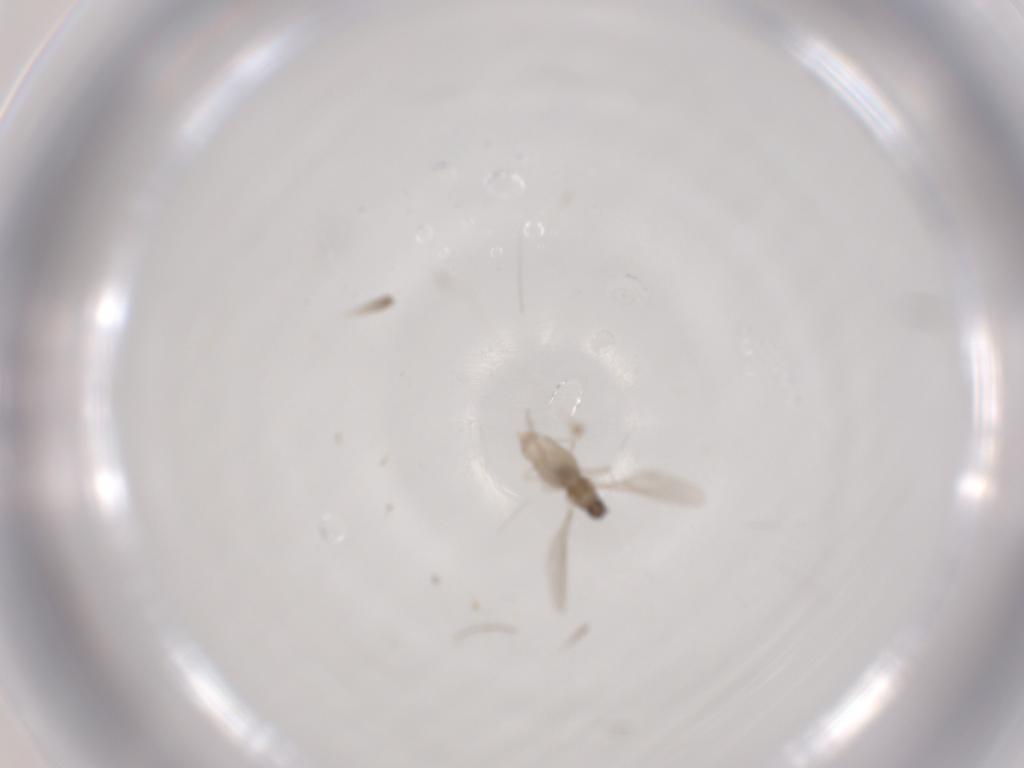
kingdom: Animalia
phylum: Arthropoda
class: Insecta
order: Diptera
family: Cecidomyiidae
